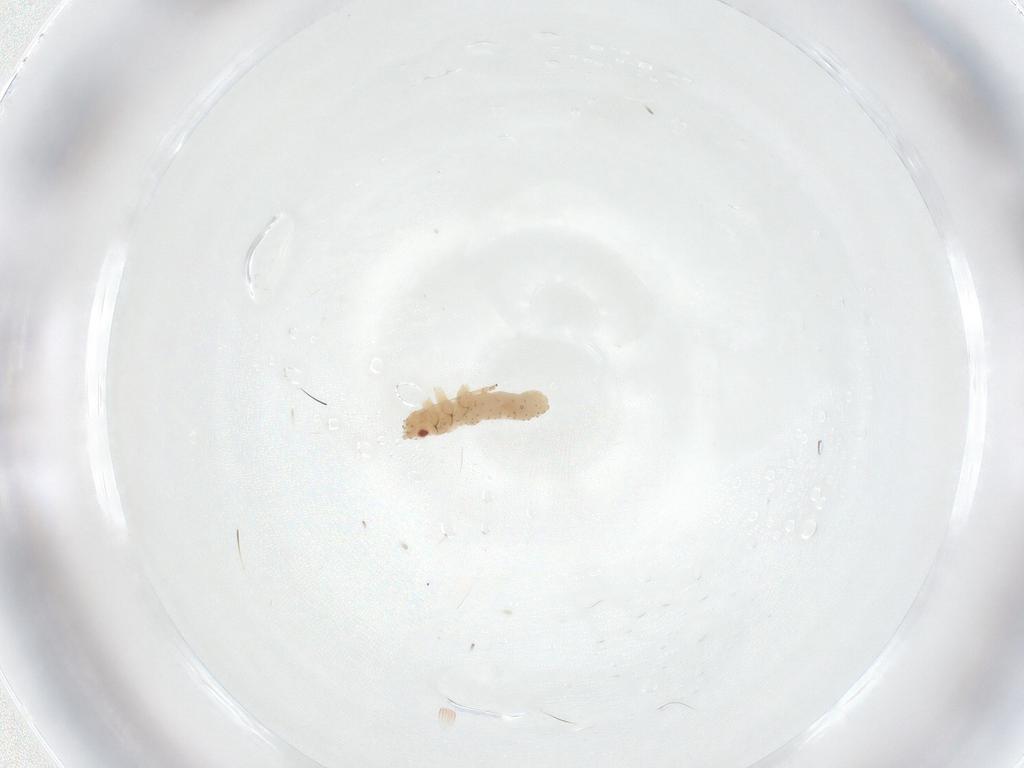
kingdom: Animalia
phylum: Arthropoda
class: Insecta
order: Hemiptera
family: Aphididae
